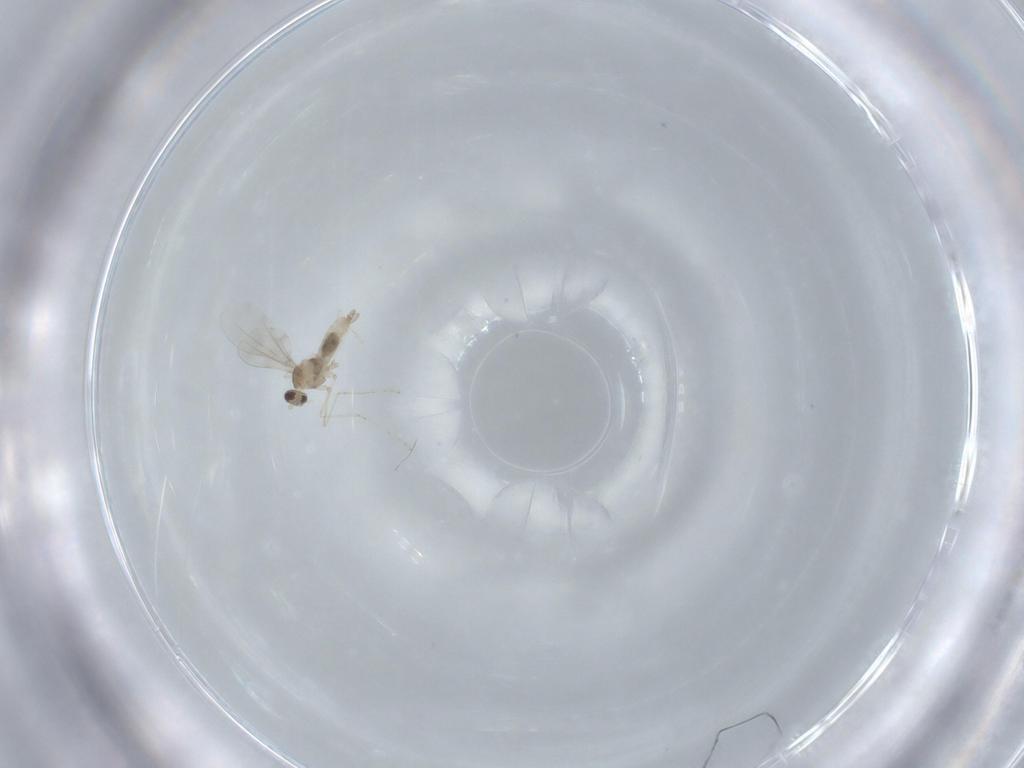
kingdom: Animalia
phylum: Arthropoda
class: Insecta
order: Diptera
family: Cecidomyiidae
